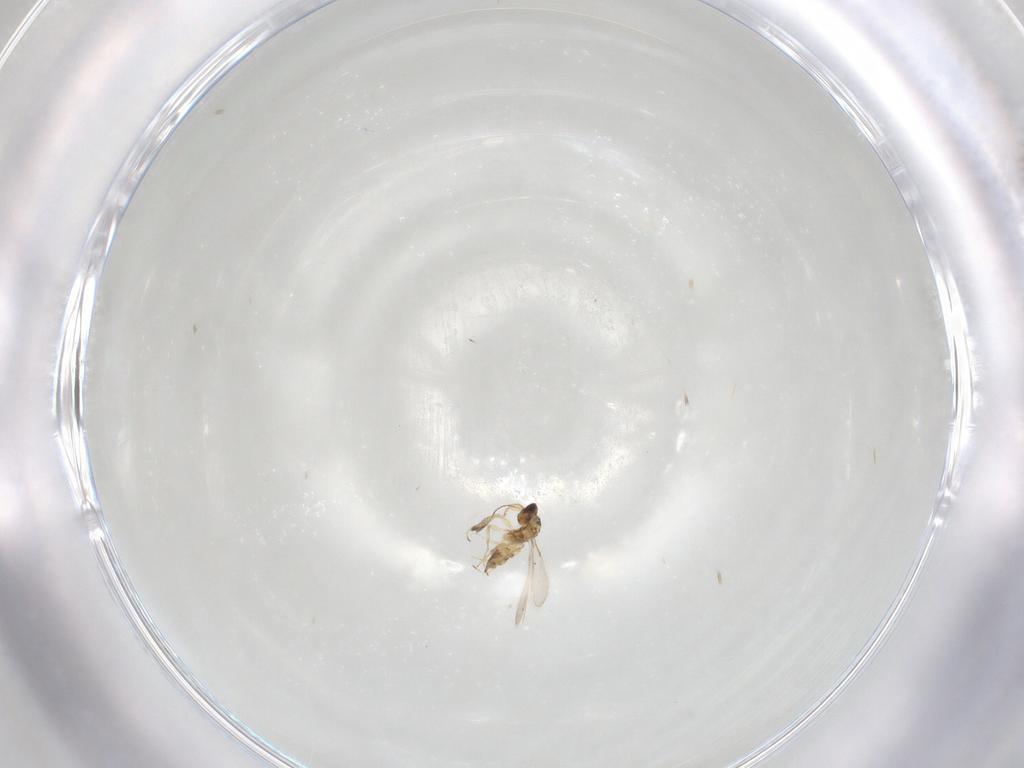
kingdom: Animalia
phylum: Arthropoda
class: Insecta
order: Hymenoptera
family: Mymaridae
